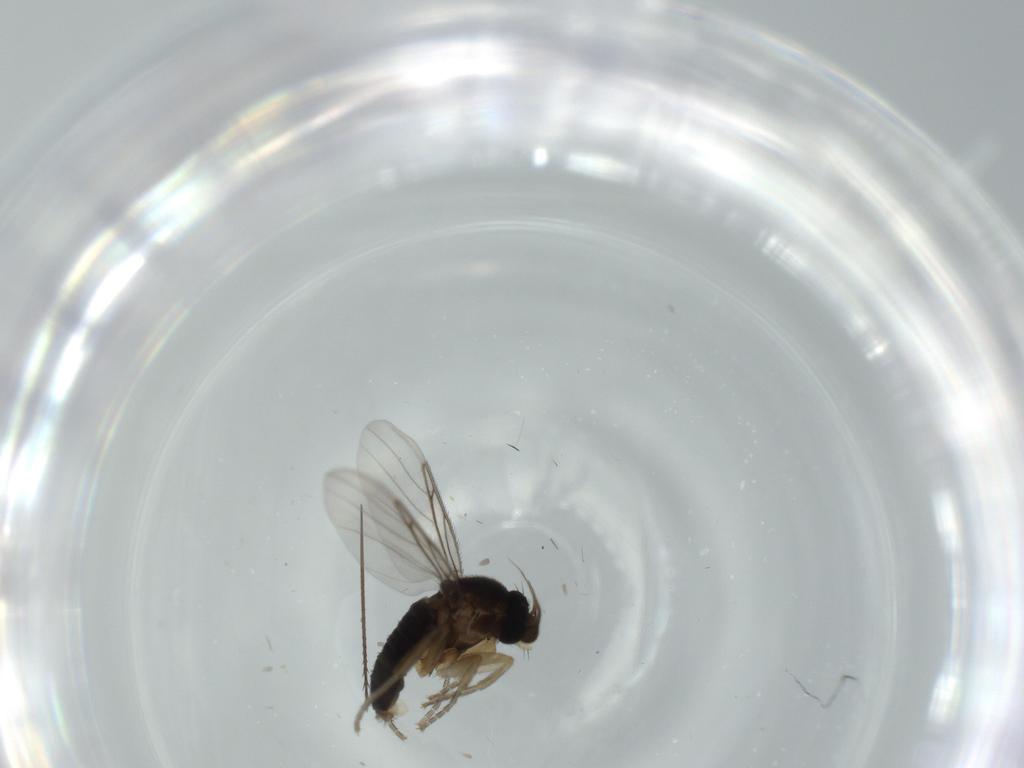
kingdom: Animalia
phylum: Arthropoda
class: Insecta
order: Diptera
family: Phoridae
